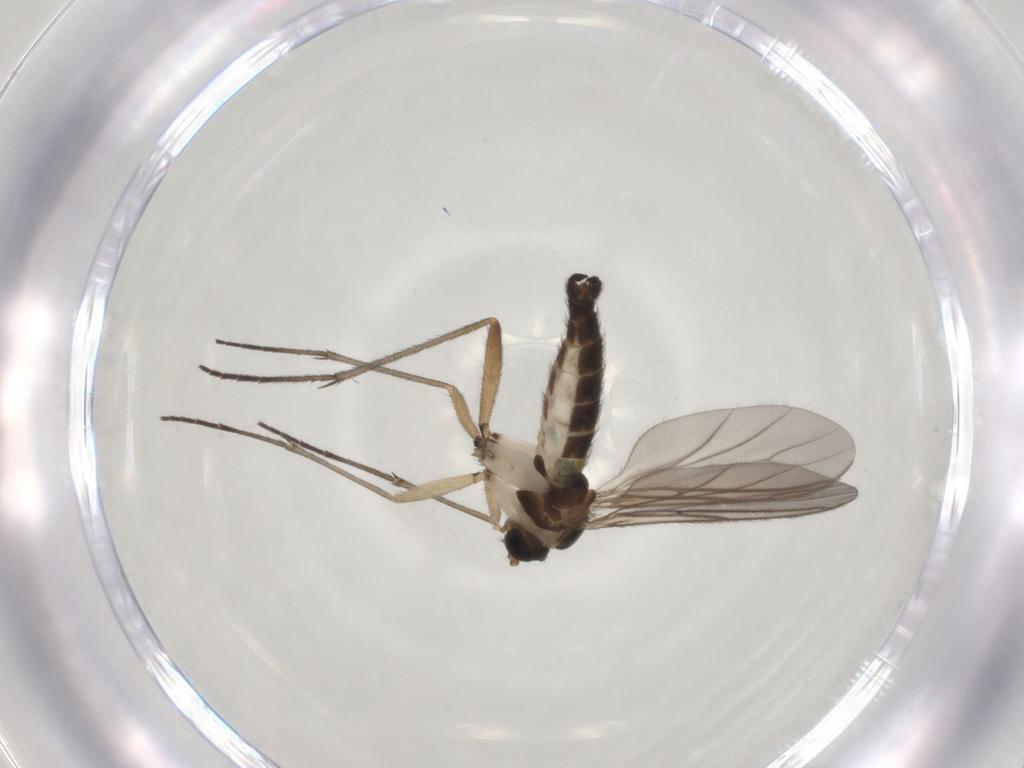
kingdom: Animalia
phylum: Arthropoda
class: Insecta
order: Diptera
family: Sciaridae
